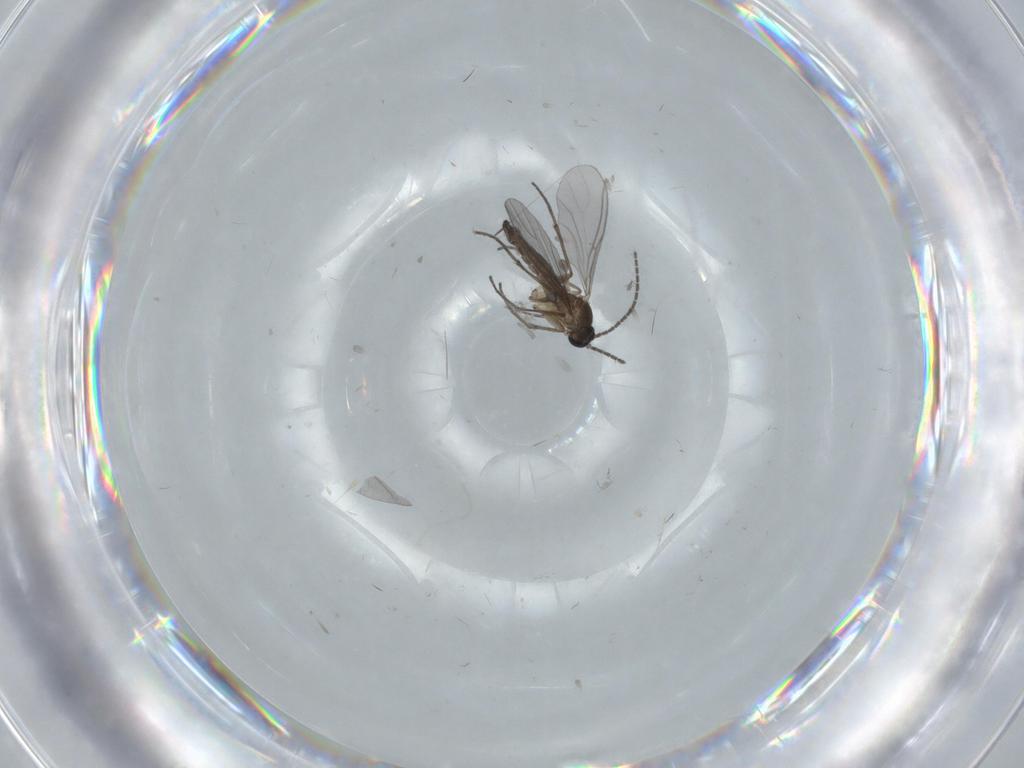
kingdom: Animalia
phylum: Arthropoda
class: Insecta
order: Diptera
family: Sciaridae
